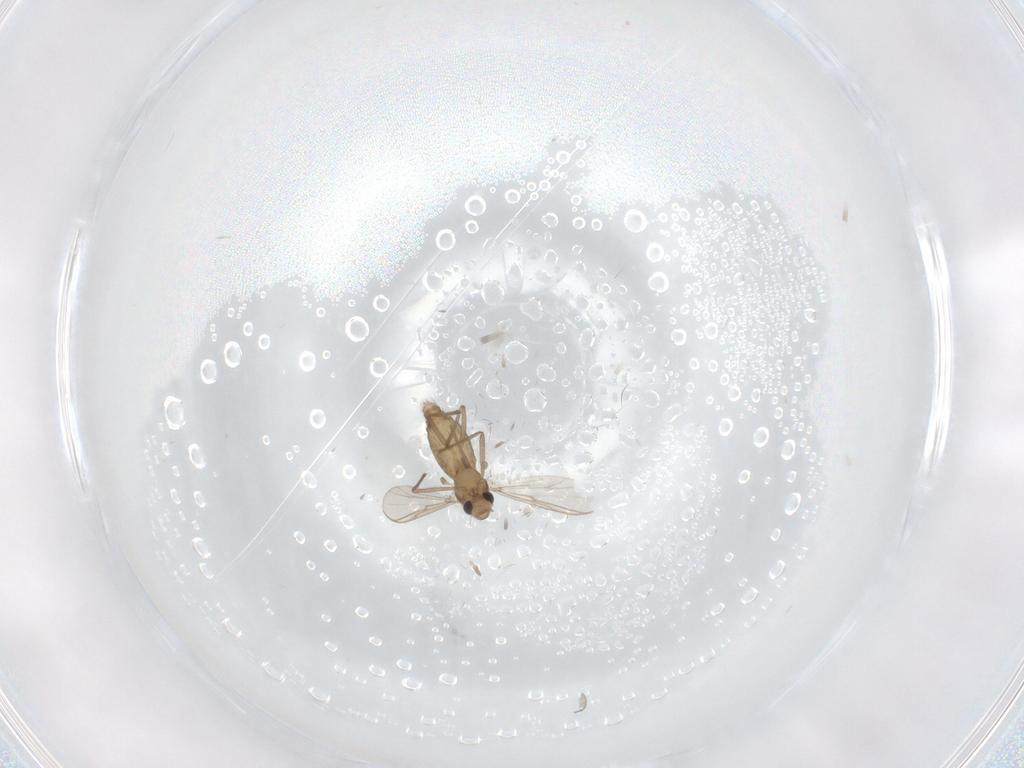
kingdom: Animalia
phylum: Arthropoda
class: Insecta
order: Diptera
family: Chironomidae
